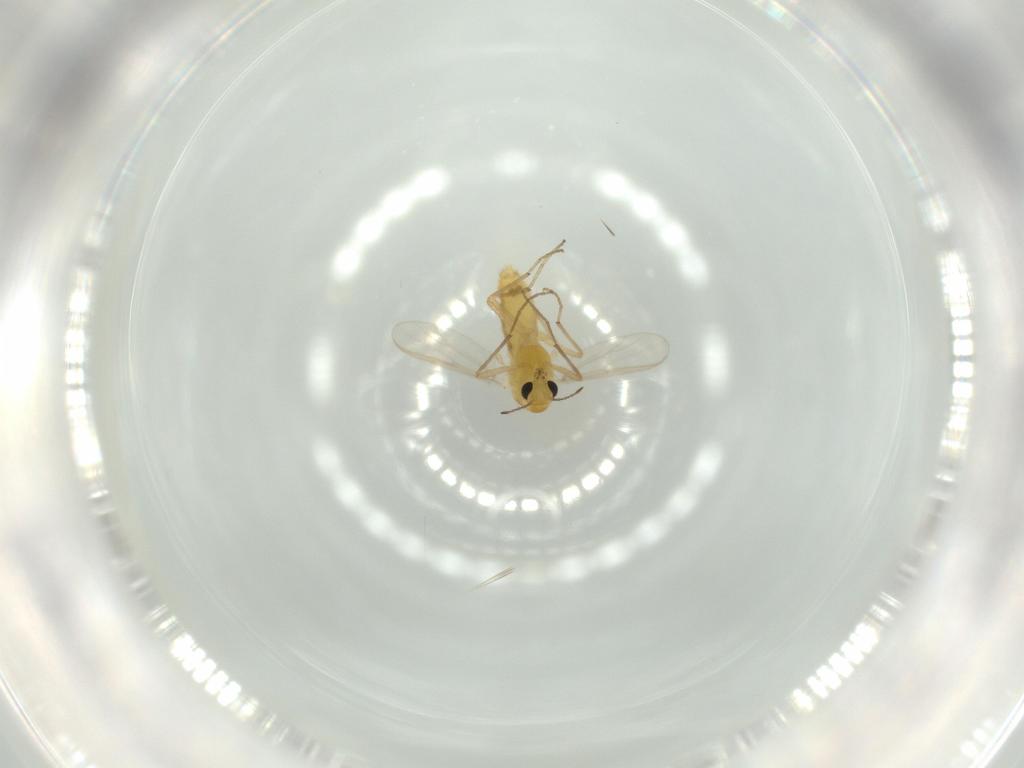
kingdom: Animalia
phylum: Arthropoda
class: Insecta
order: Diptera
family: Chironomidae
